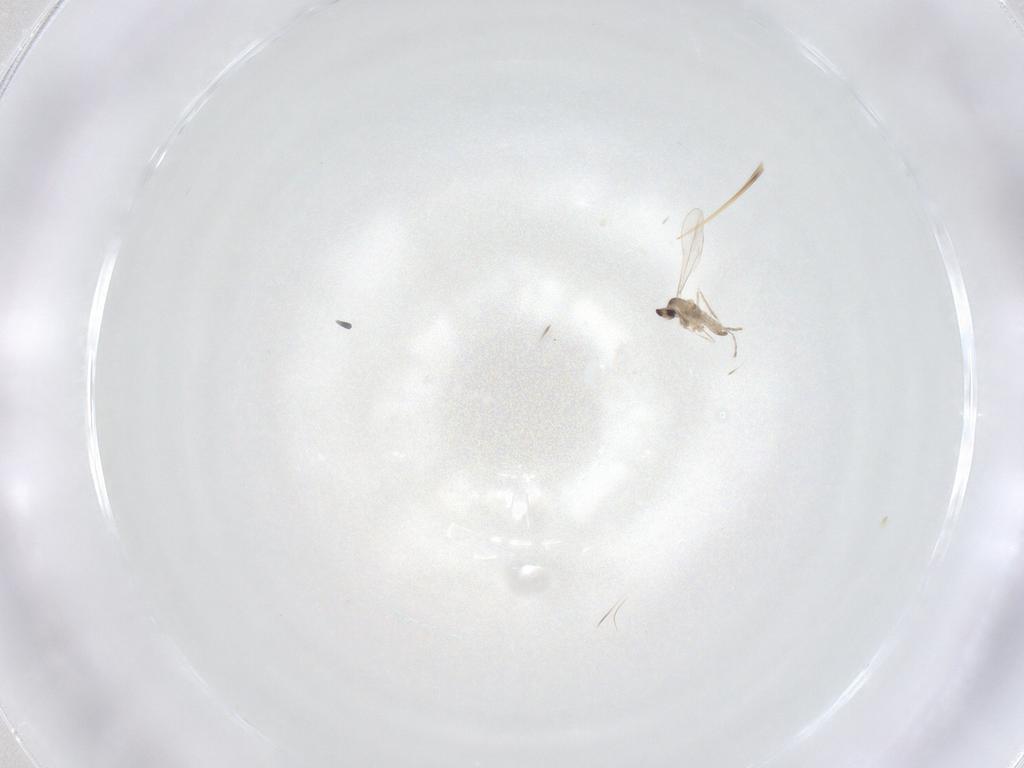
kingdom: Animalia
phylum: Arthropoda
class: Insecta
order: Diptera
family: Cecidomyiidae
